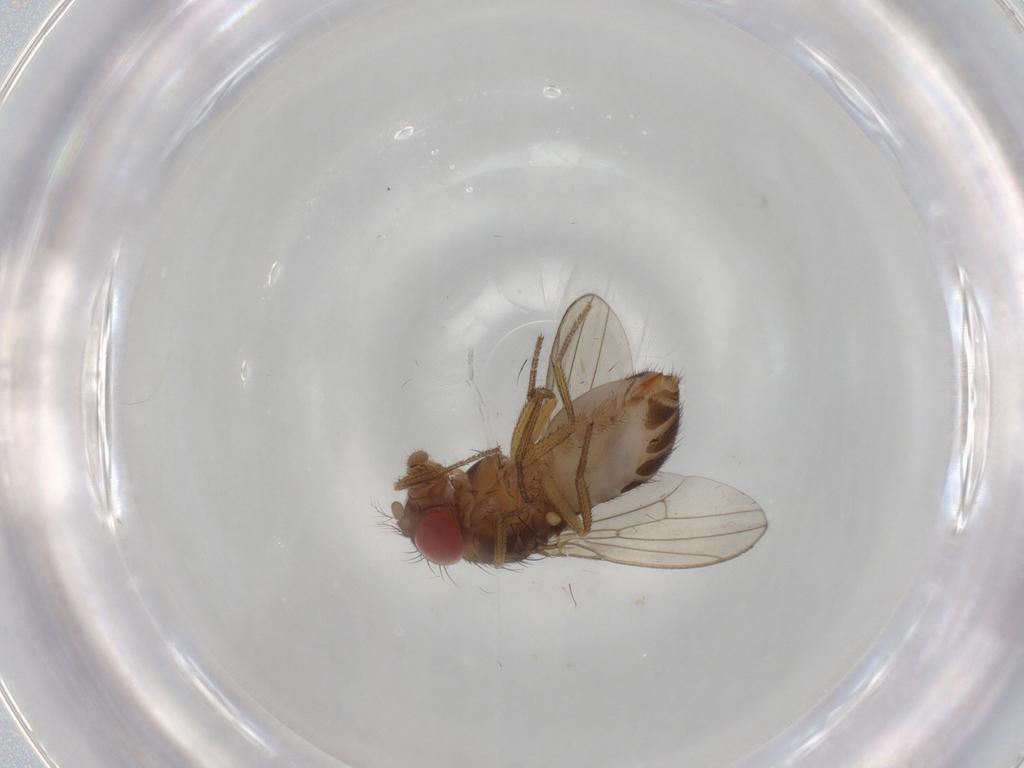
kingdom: Animalia
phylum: Arthropoda
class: Insecta
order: Diptera
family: Drosophilidae
